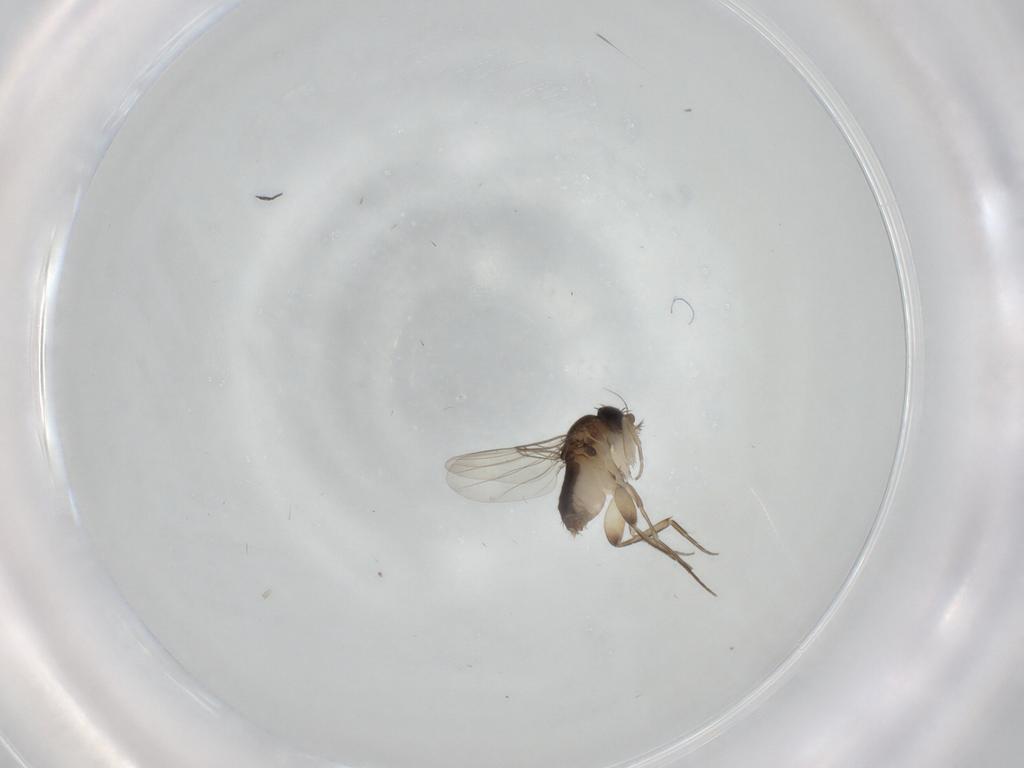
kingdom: Animalia
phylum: Arthropoda
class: Insecta
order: Diptera
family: Phoridae
